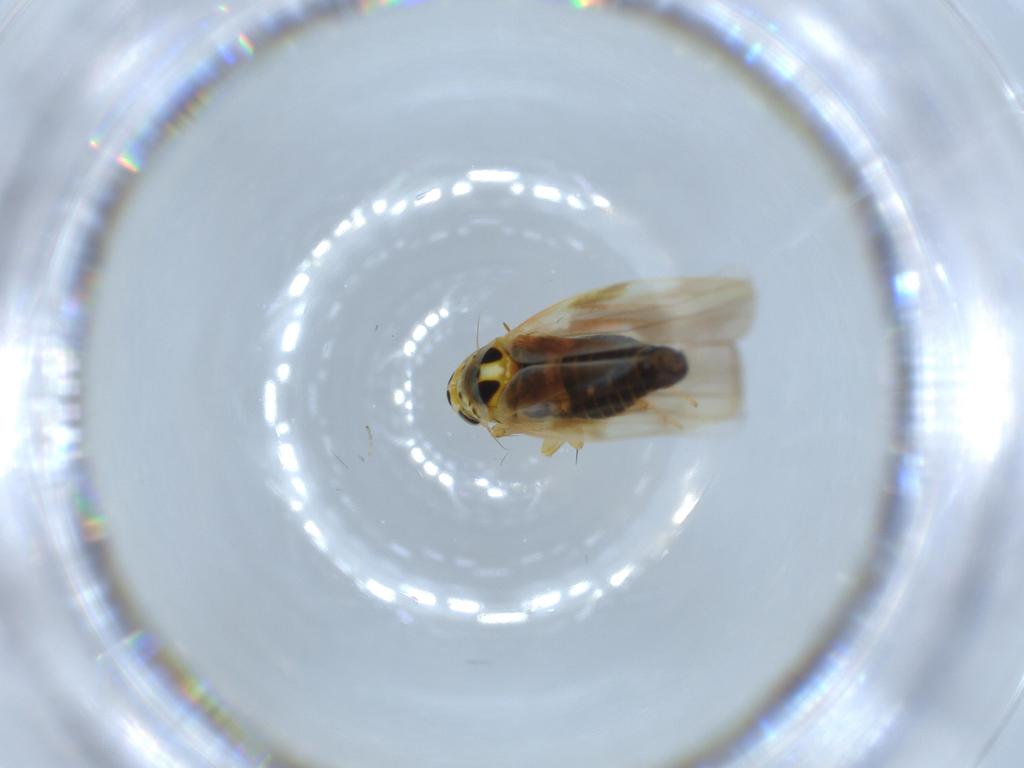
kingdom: Animalia
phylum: Arthropoda
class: Insecta
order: Hemiptera
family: Cicadellidae
